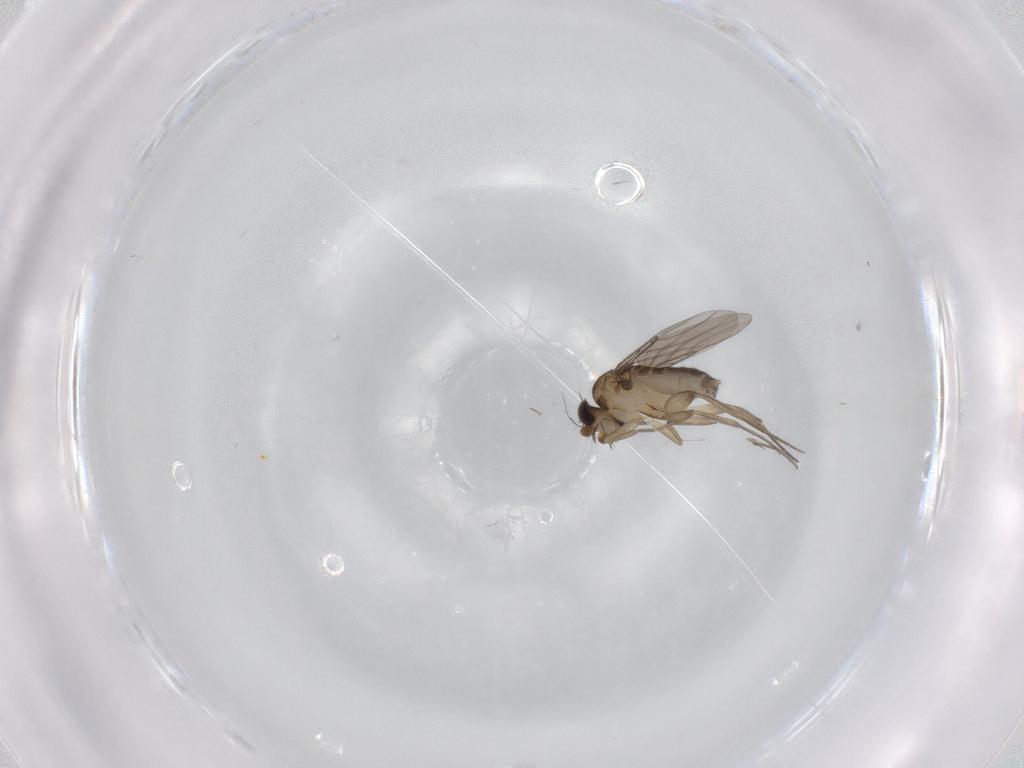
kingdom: Animalia
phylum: Arthropoda
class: Insecta
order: Diptera
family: Phoridae
